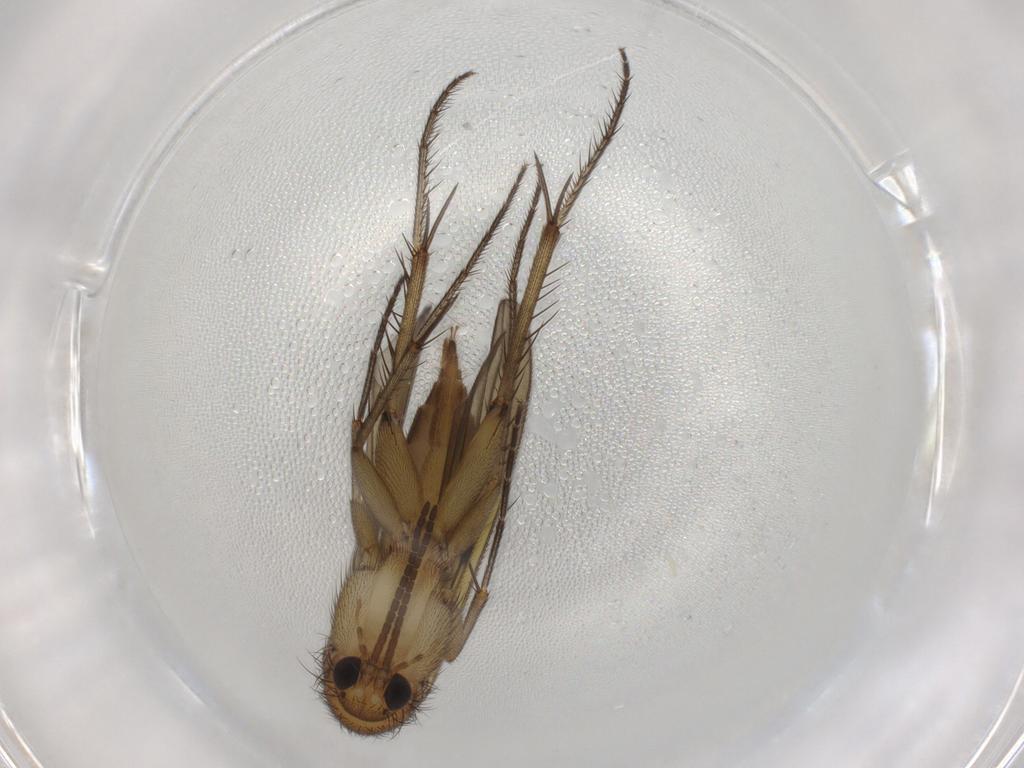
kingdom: Animalia
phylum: Arthropoda
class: Insecta
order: Diptera
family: Mycetophilidae
